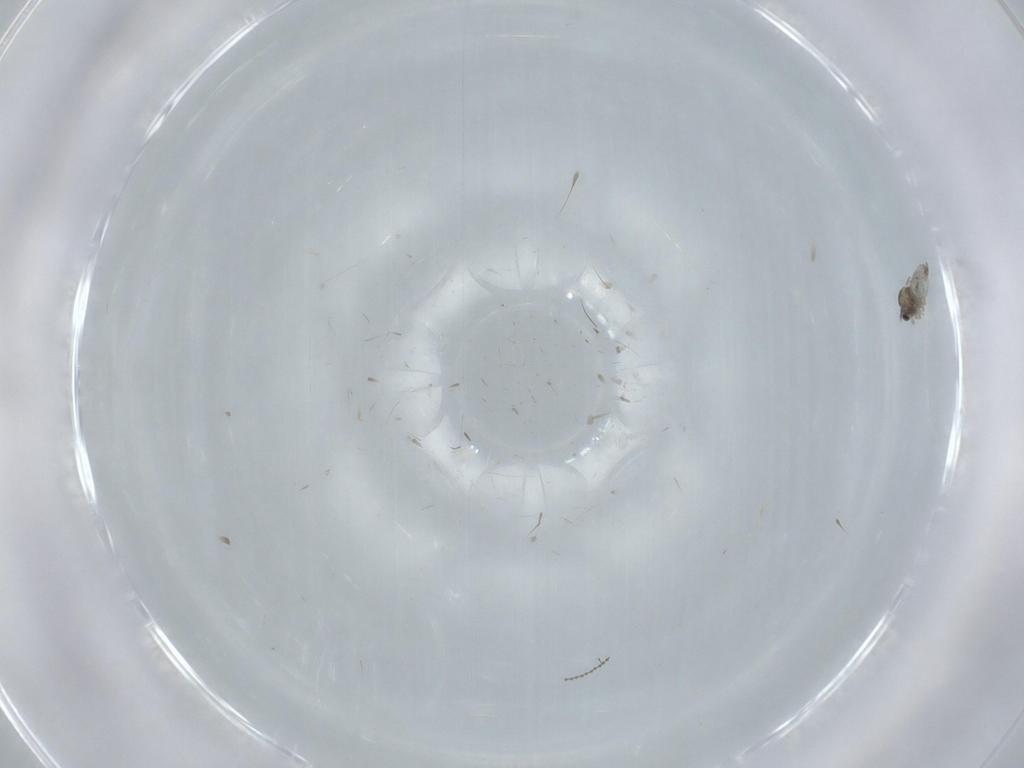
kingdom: Animalia
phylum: Arthropoda
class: Insecta
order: Diptera
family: Cecidomyiidae
